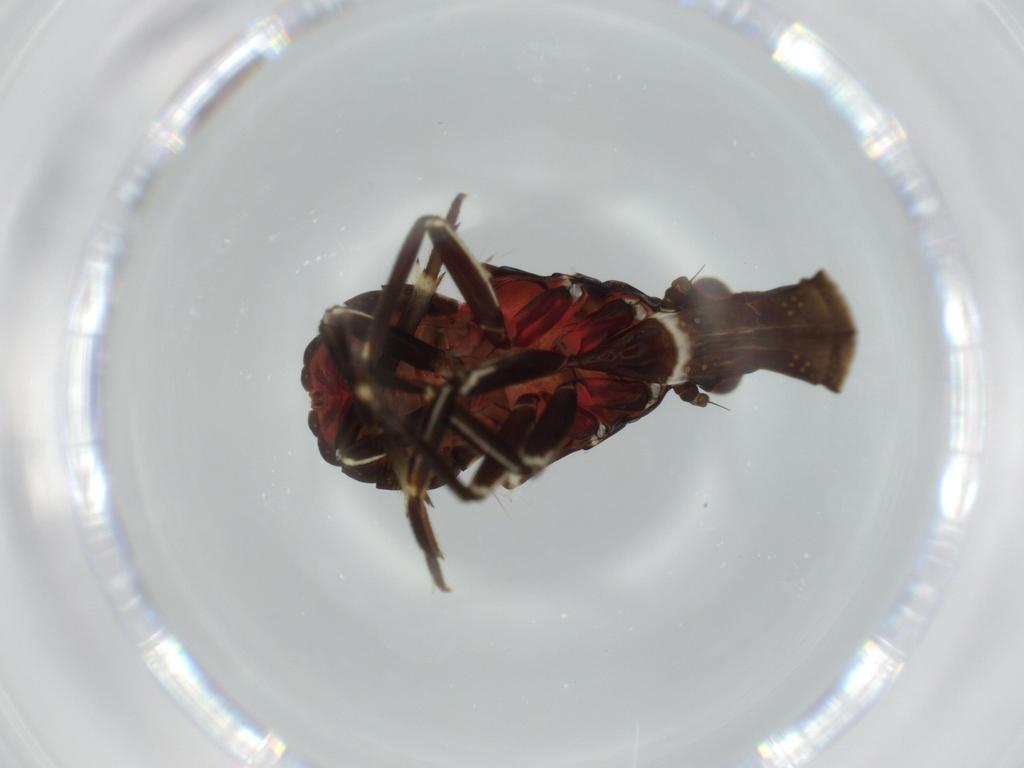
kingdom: Animalia
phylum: Arthropoda
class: Insecta
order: Hemiptera
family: Fulgoridae
